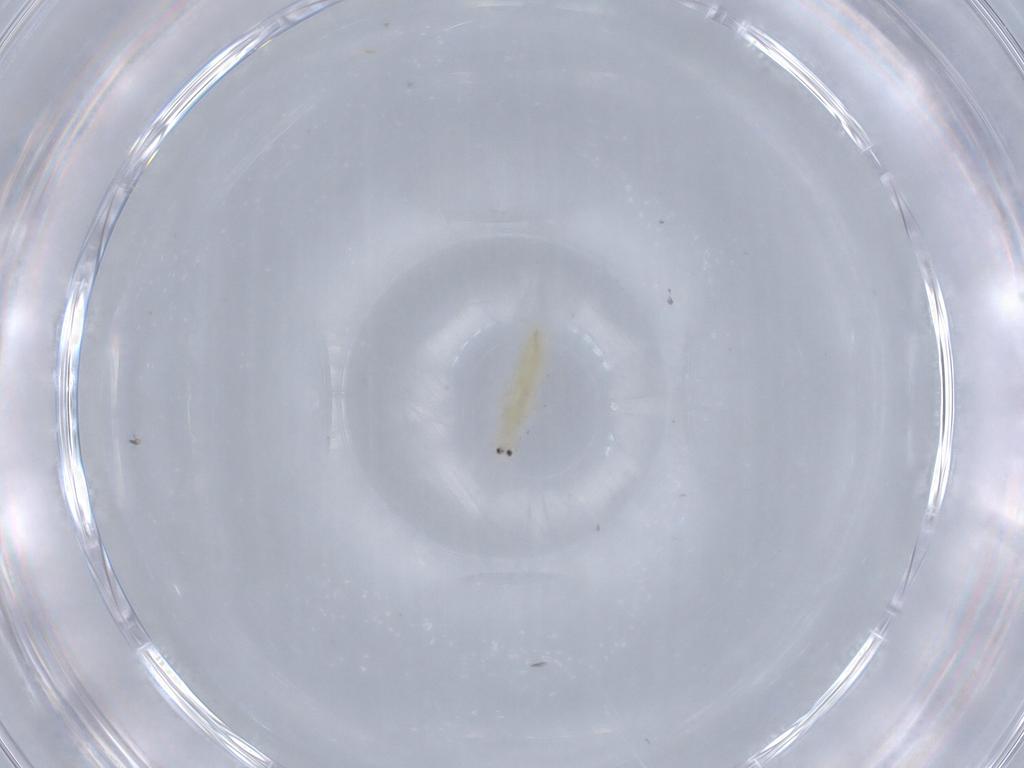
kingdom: Animalia
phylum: Arthropoda
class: Insecta
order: Thysanoptera
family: Thripidae
